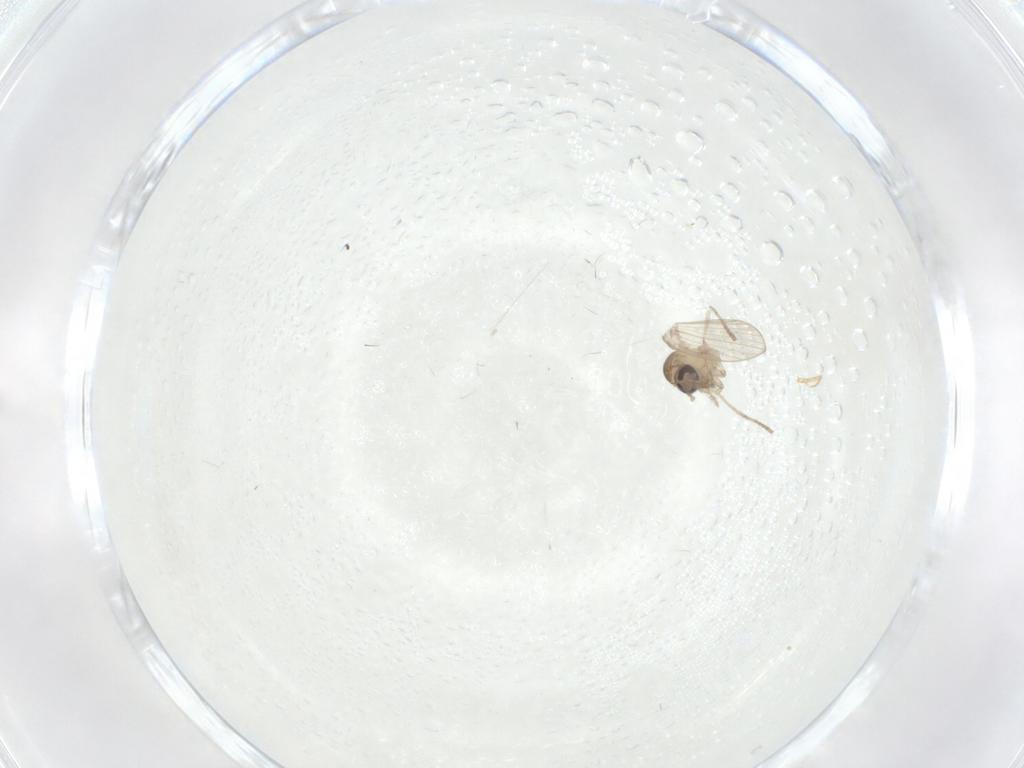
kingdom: Animalia
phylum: Arthropoda
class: Insecta
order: Diptera
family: Psychodidae
